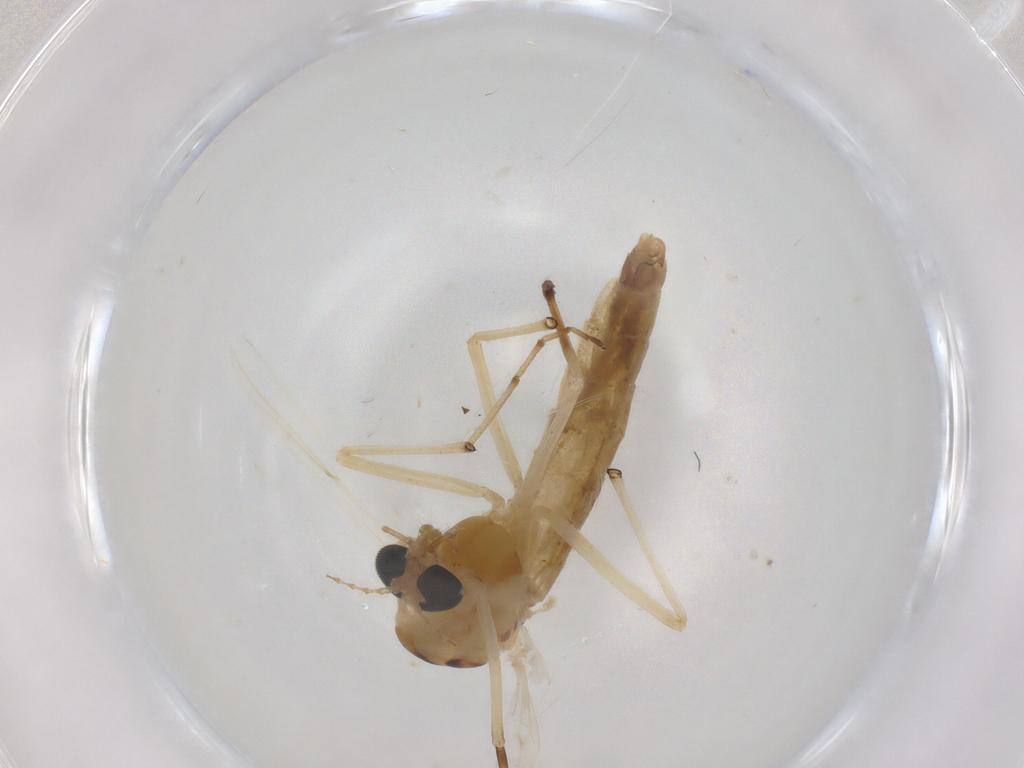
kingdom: Animalia
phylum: Arthropoda
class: Insecta
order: Diptera
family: Chironomidae
